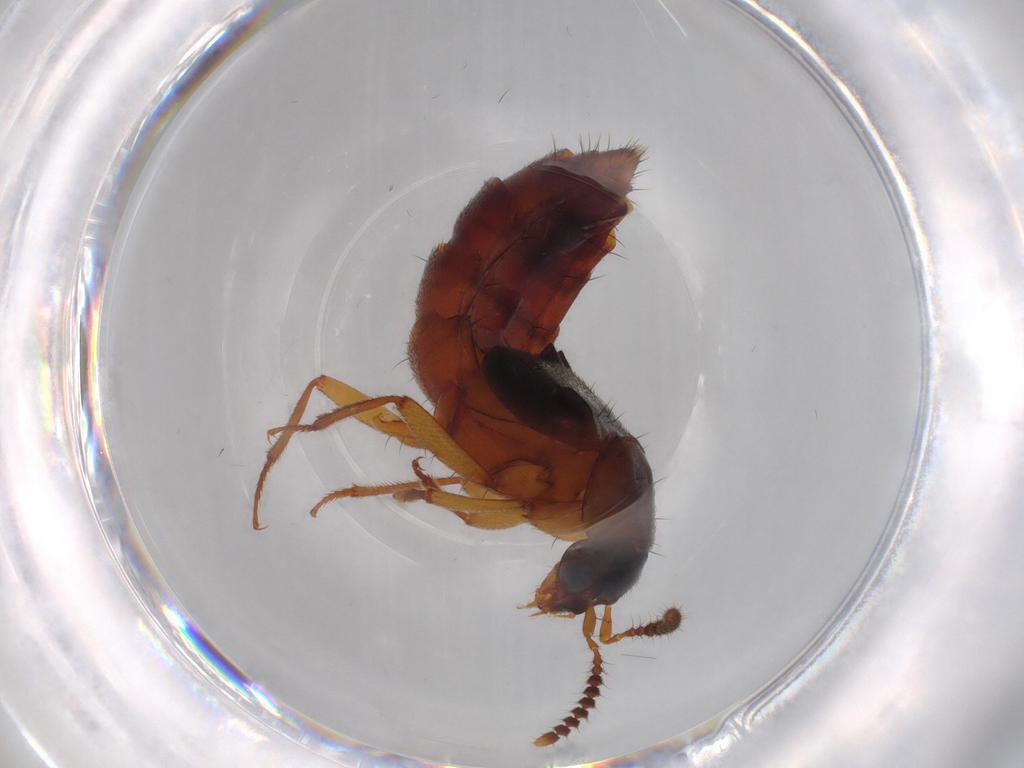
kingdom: Animalia
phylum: Arthropoda
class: Insecta
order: Coleoptera
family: Staphylinidae
